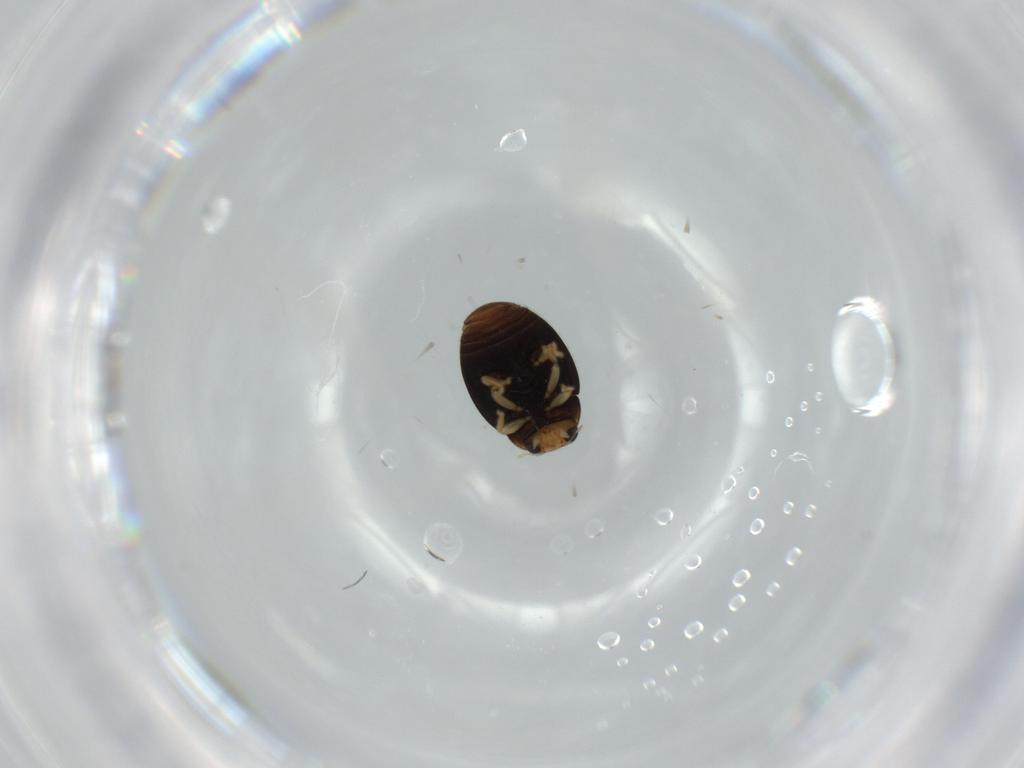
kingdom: Animalia
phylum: Arthropoda
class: Insecta
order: Coleoptera
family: Coccinellidae
